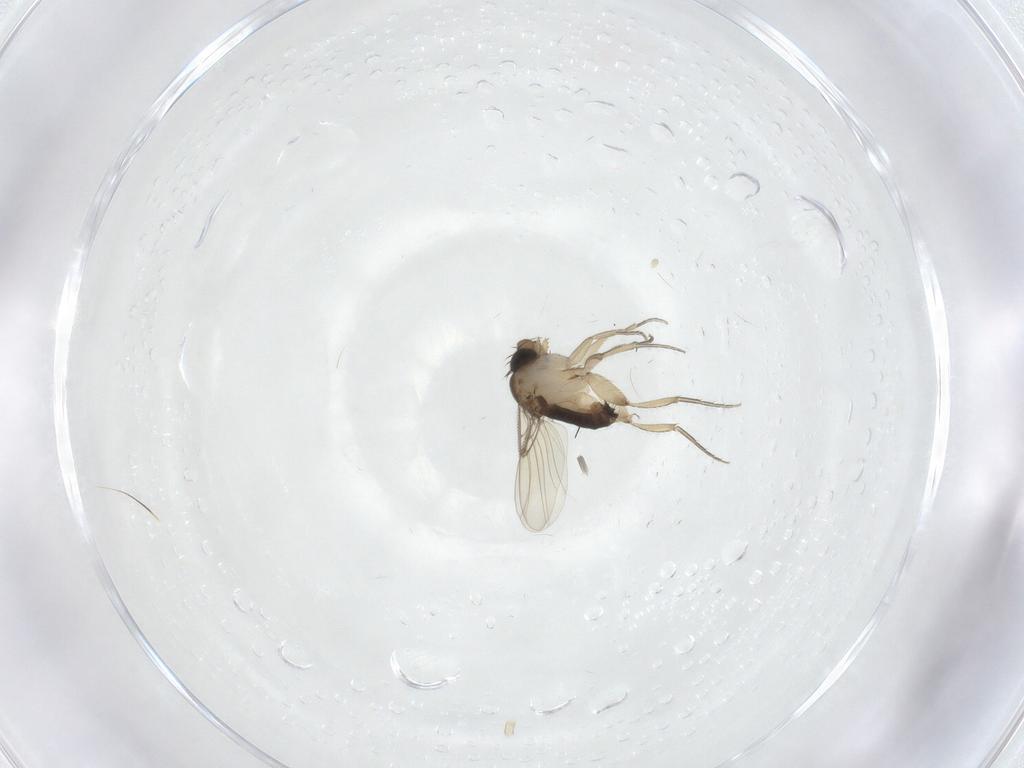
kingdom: Animalia
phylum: Arthropoda
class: Insecta
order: Diptera
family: Phoridae
